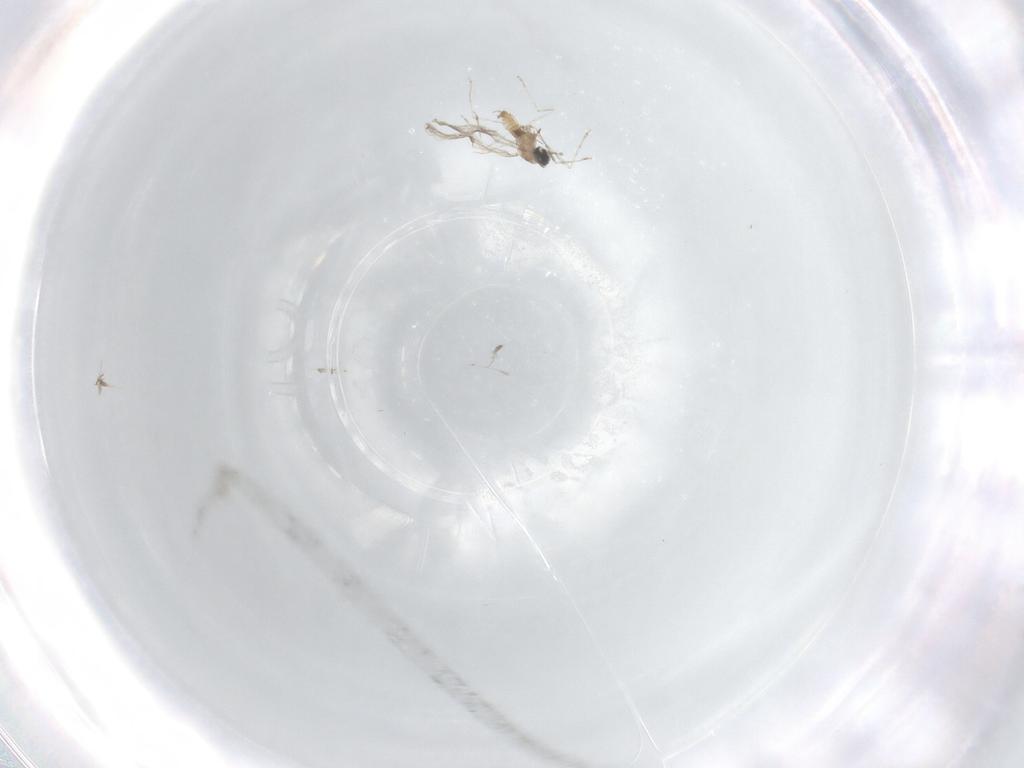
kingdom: Animalia
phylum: Arthropoda
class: Insecta
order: Diptera
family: Cecidomyiidae
